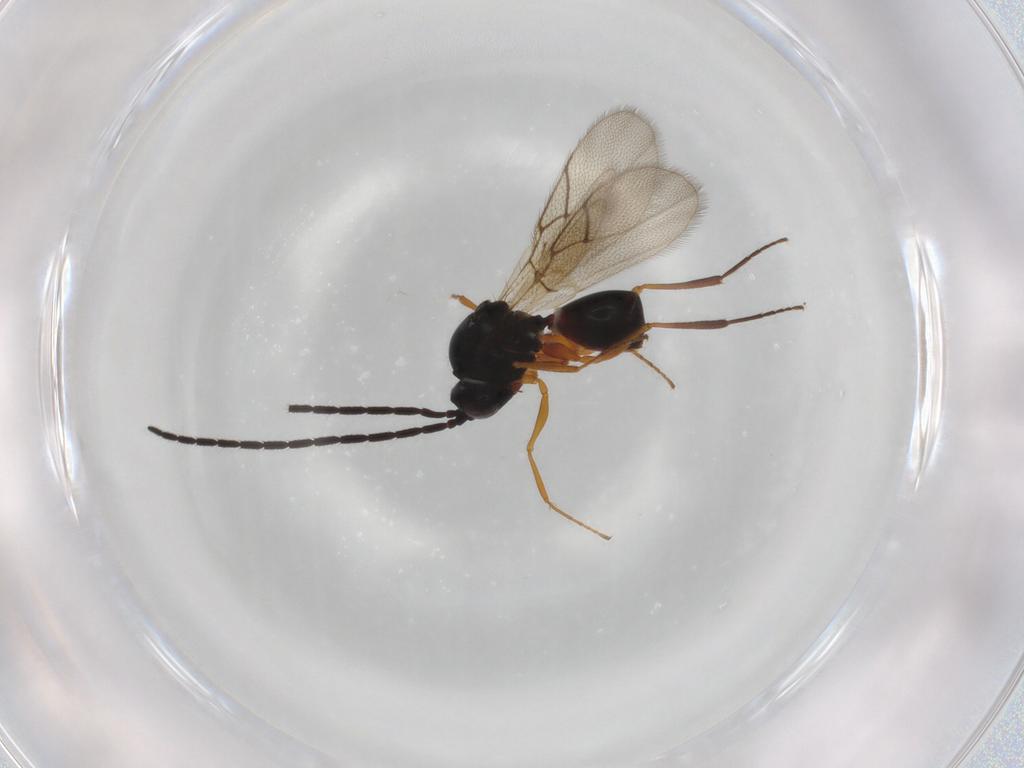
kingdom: Animalia
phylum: Arthropoda
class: Insecta
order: Hymenoptera
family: Figitidae
